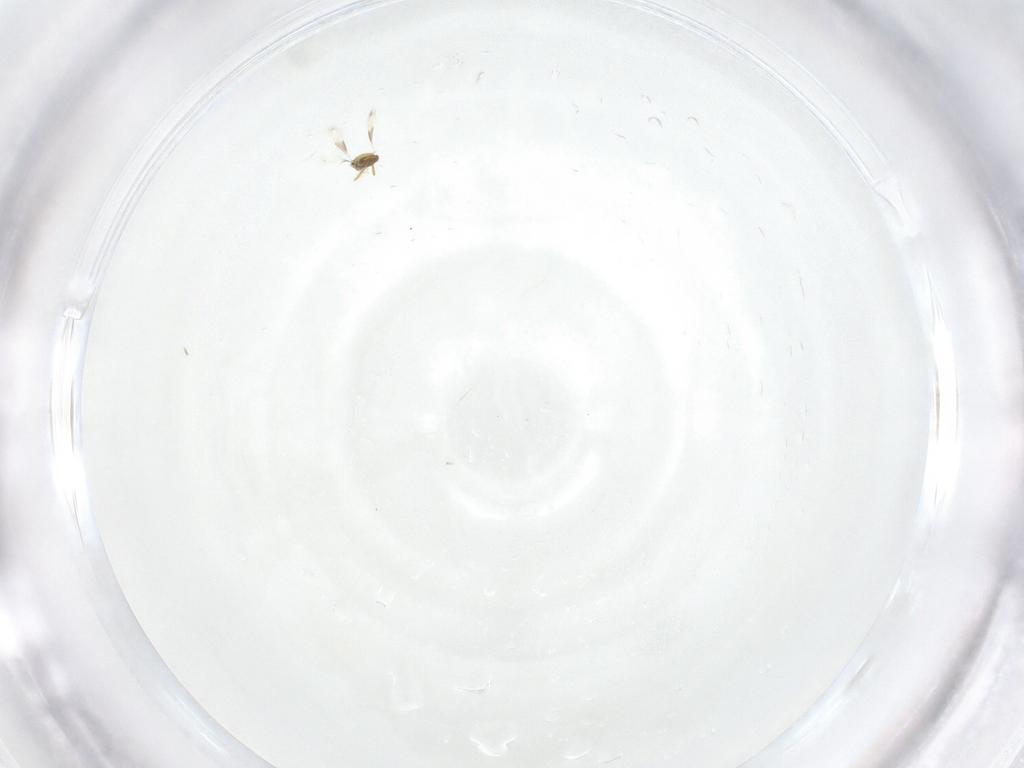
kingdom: Animalia
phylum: Arthropoda
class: Insecta
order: Hymenoptera
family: Aphelinidae
